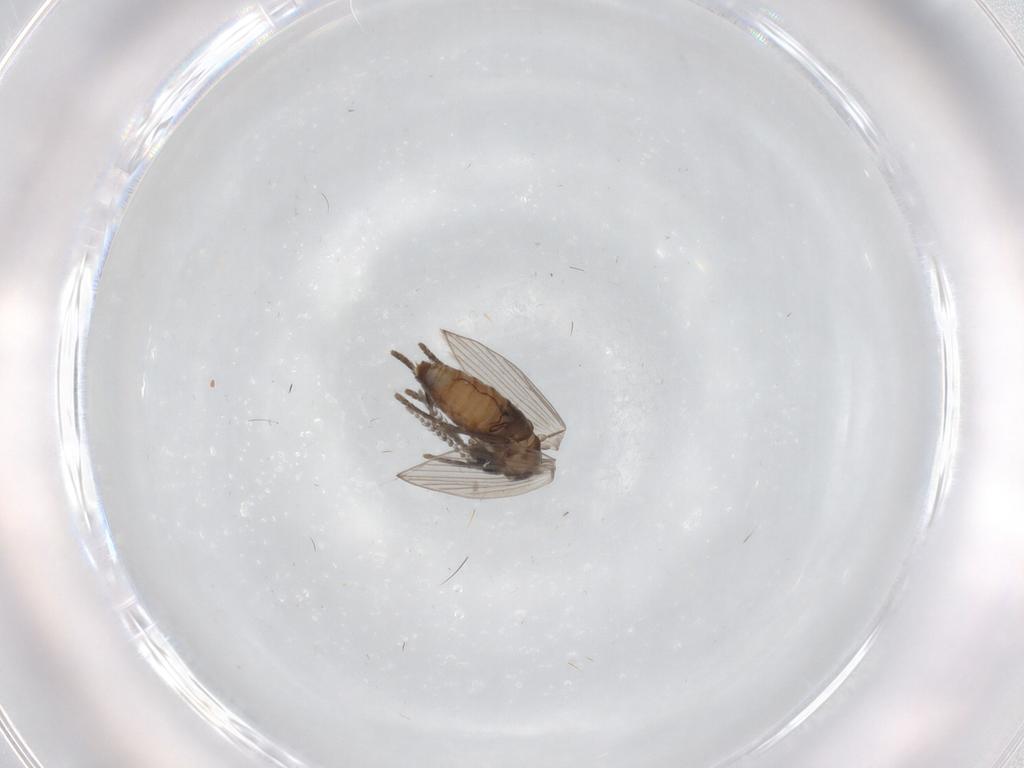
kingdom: Animalia
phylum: Arthropoda
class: Insecta
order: Diptera
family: Psychodidae
